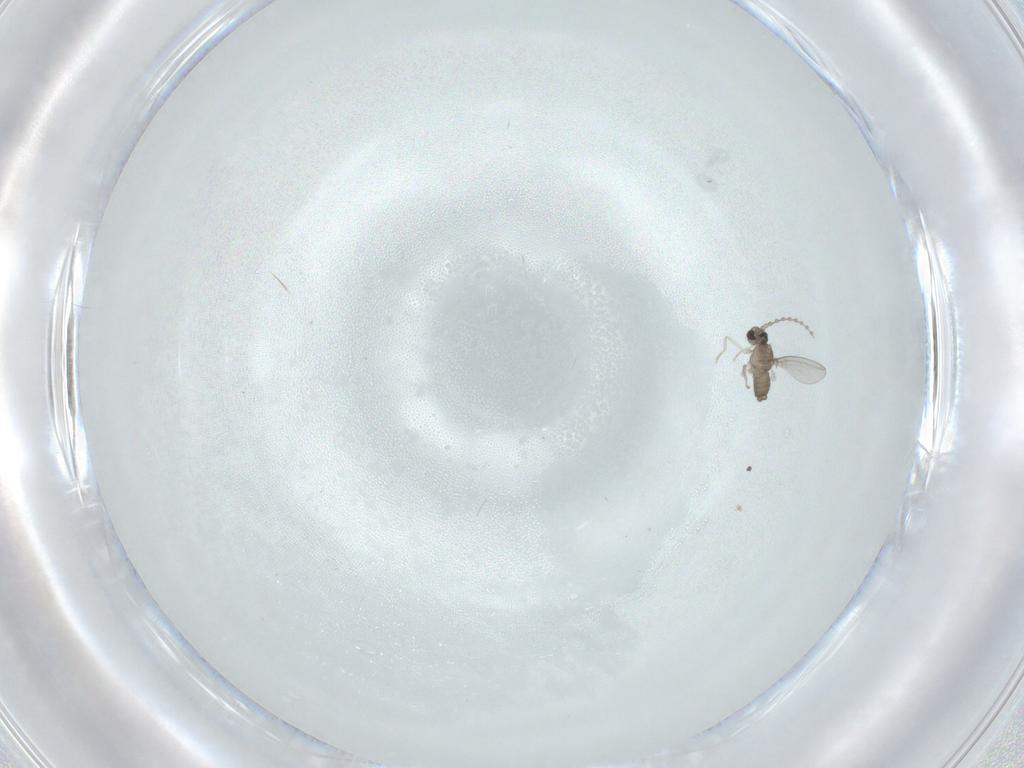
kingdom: Animalia
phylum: Arthropoda
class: Insecta
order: Diptera
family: Cecidomyiidae
